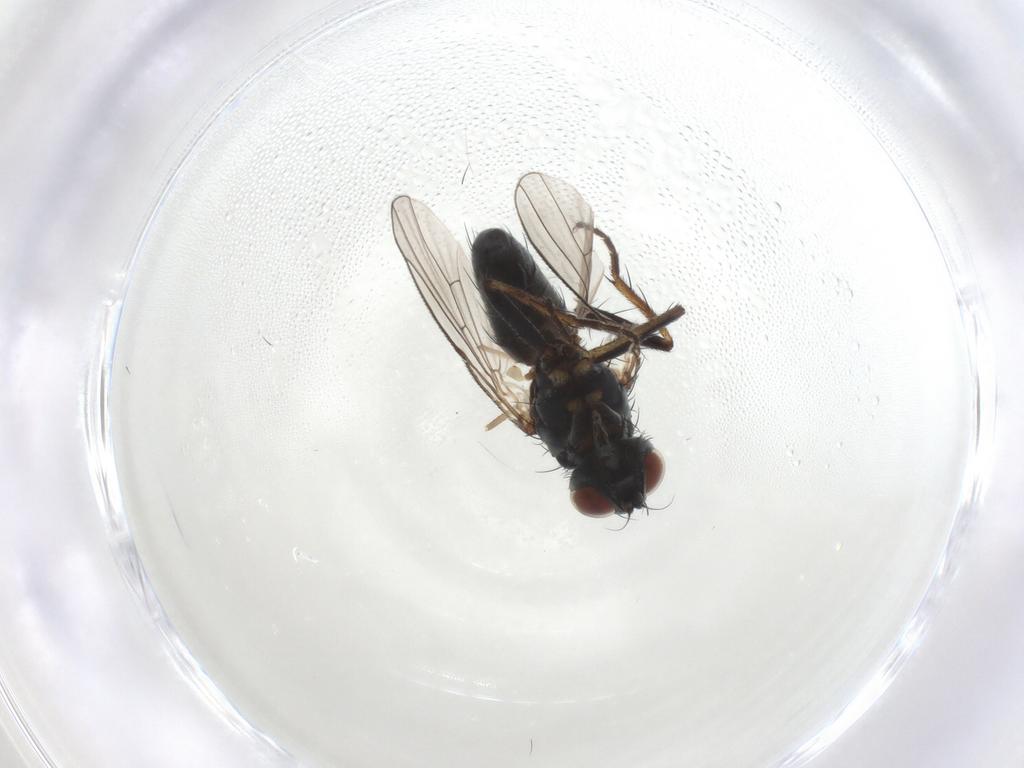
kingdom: Animalia
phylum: Arthropoda
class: Insecta
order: Diptera
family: Muscidae
